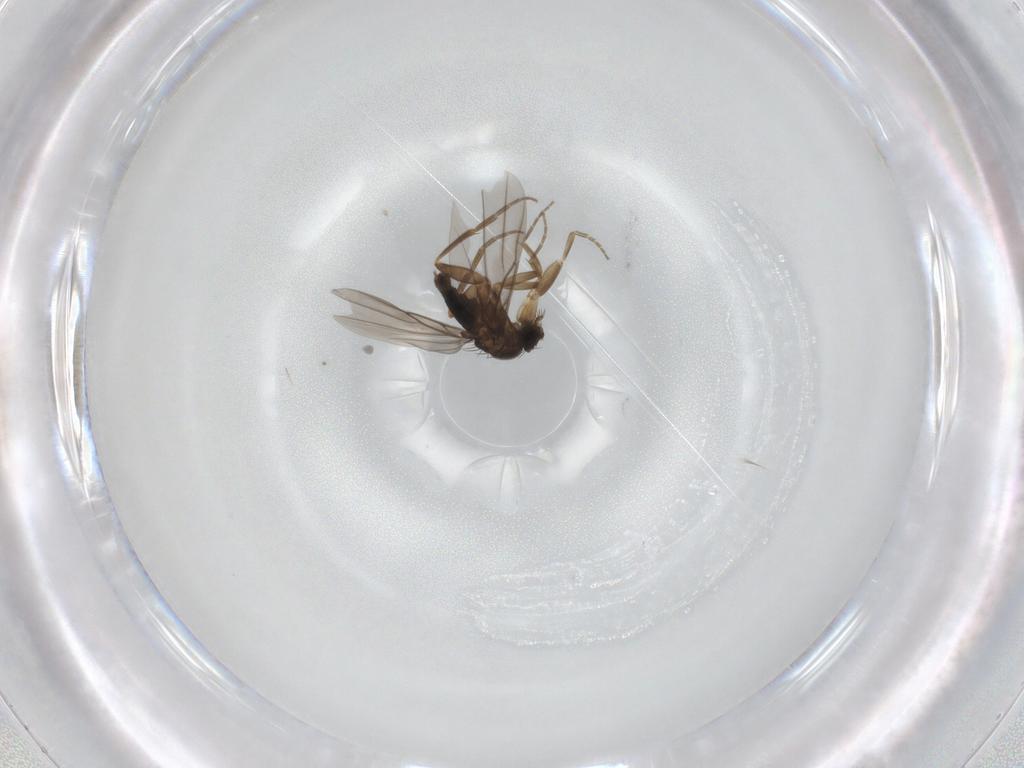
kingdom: Animalia
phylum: Arthropoda
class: Insecta
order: Diptera
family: Phoridae
